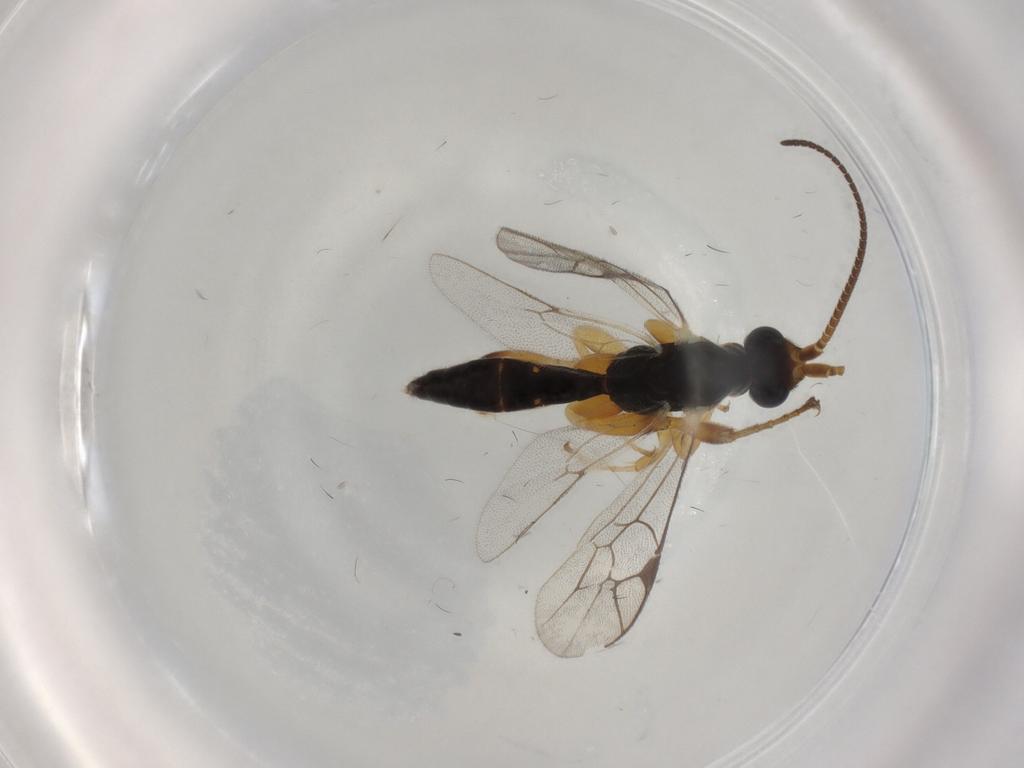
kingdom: Animalia
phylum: Arthropoda
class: Insecta
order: Hymenoptera
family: Ichneumonidae
